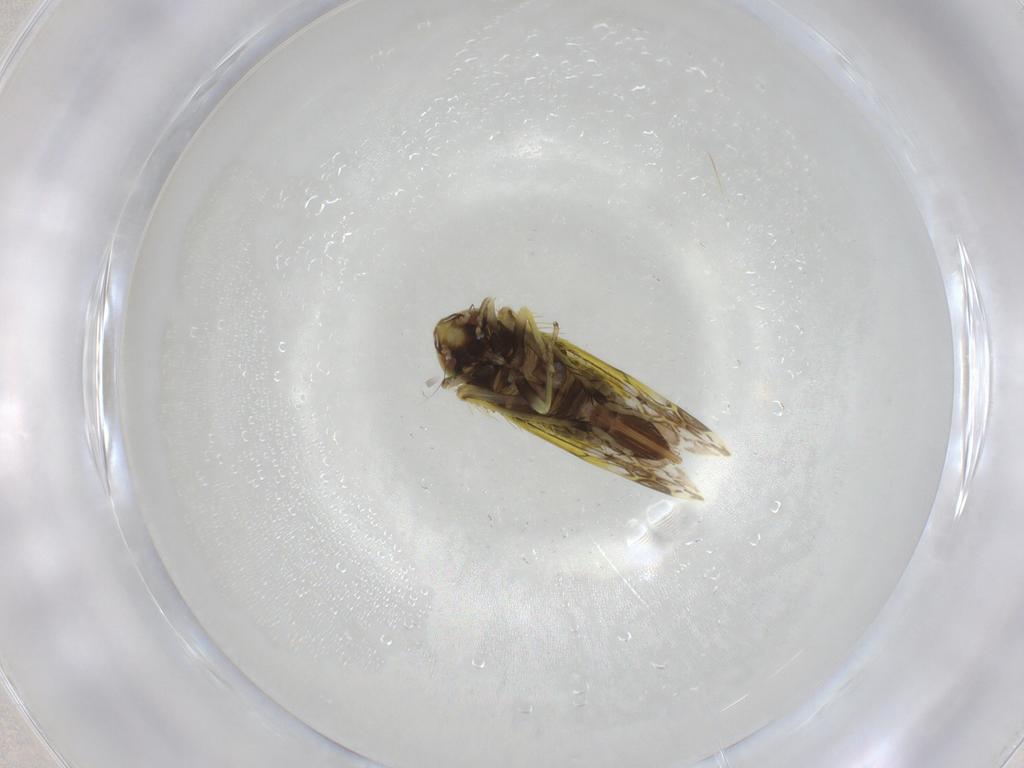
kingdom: Animalia
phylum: Arthropoda
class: Insecta
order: Hemiptera
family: Cicadellidae
